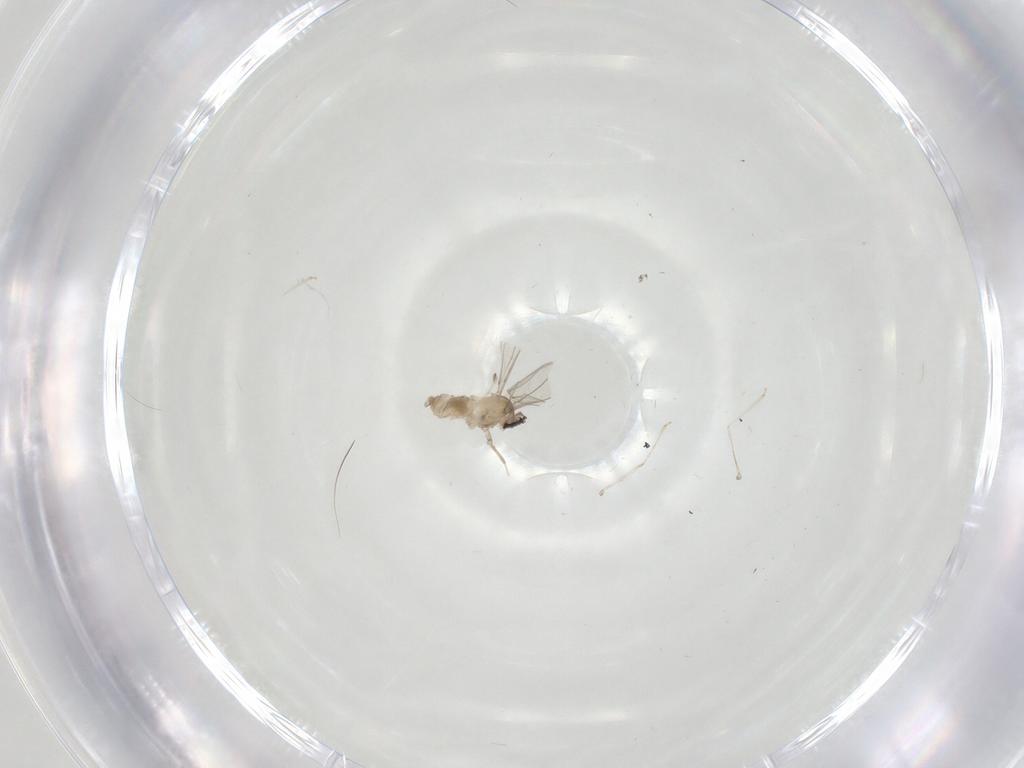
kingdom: Animalia
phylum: Arthropoda
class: Insecta
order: Diptera
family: Cecidomyiidae
